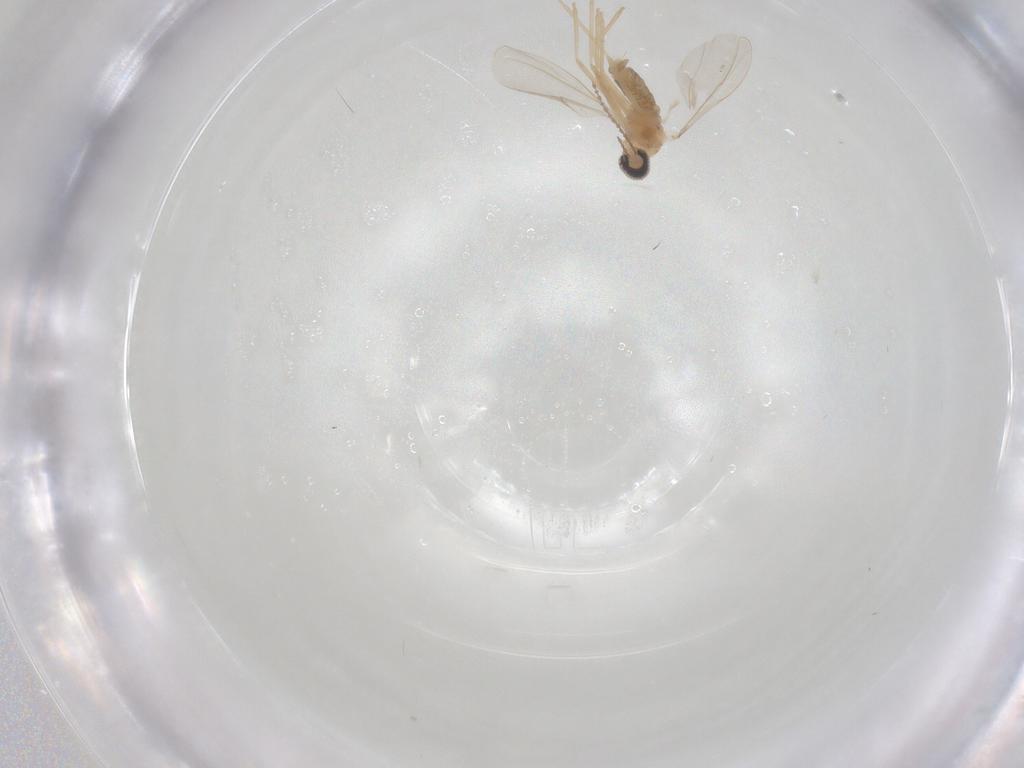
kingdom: Animalia
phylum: Arthropoda
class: Insecta
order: Diptera
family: Cecidomyiidae
